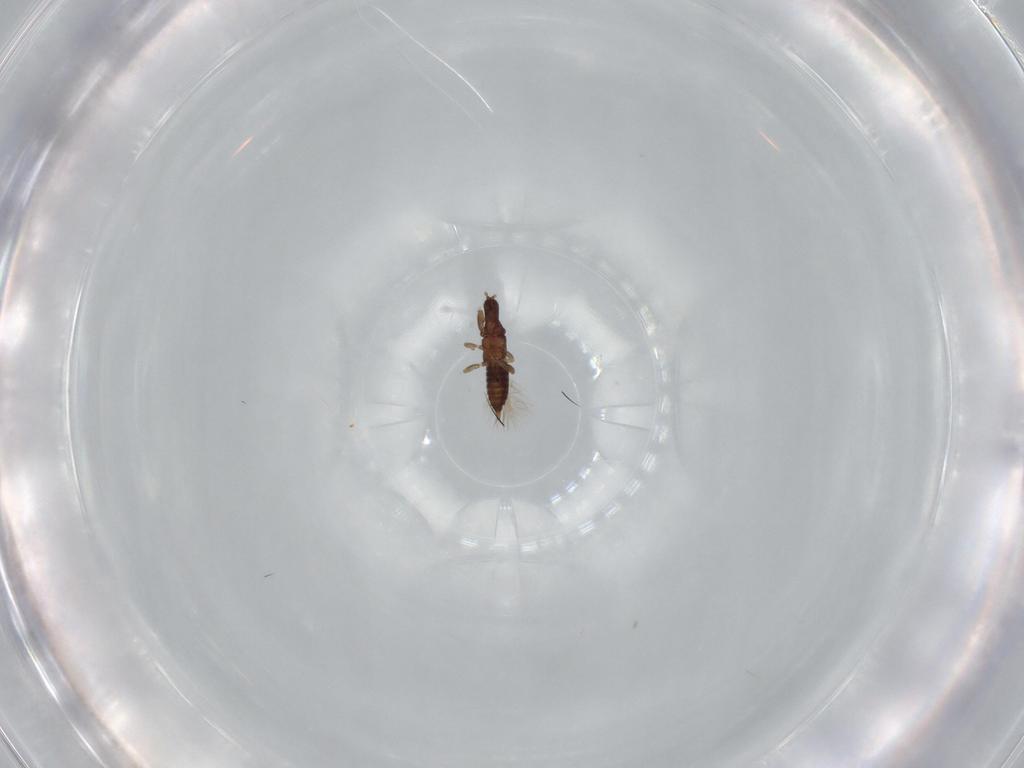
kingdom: Animalia
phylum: Arthropoda
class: Insecta
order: Thysanoptera
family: Phlaeothripidae
